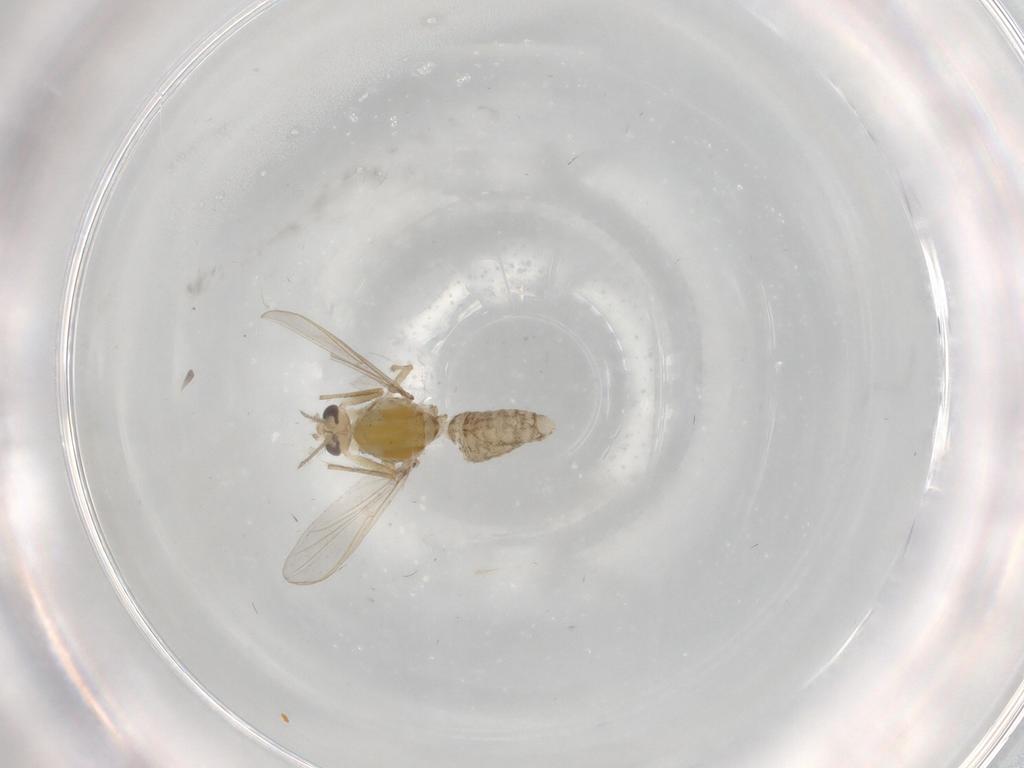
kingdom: Animalia
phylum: Arthropoda
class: Insecta
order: Diptera
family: Chironomidae
